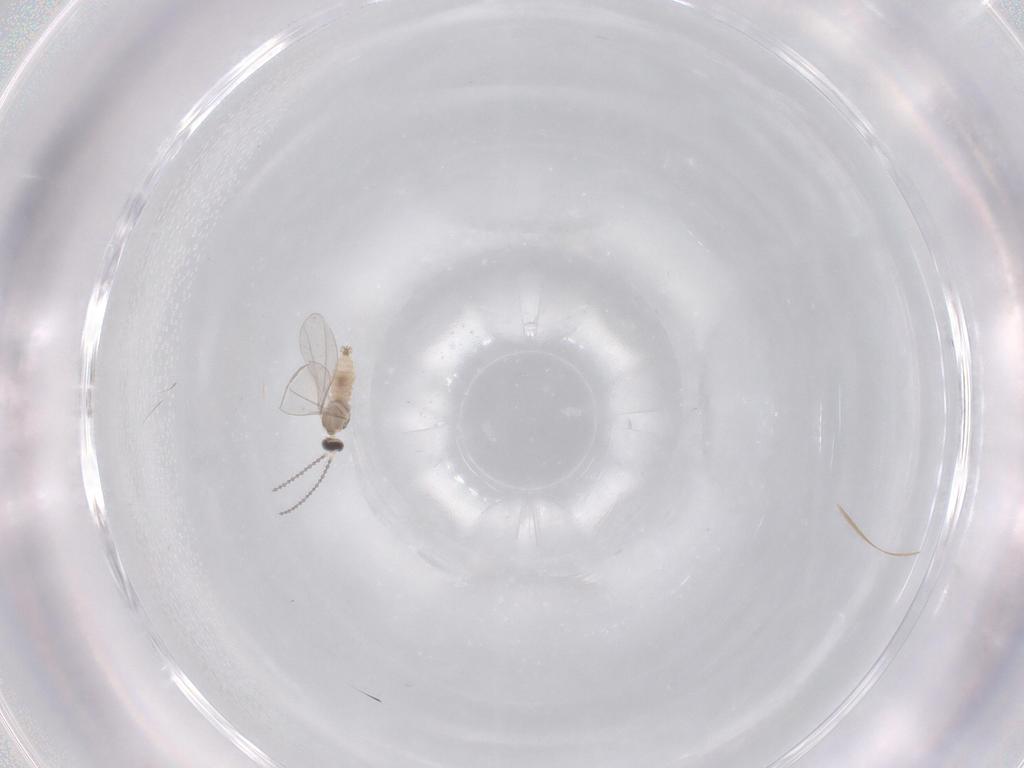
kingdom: Animalia
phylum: Arthropoda
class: Insecta
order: Diptera
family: Cecidomyiidae
